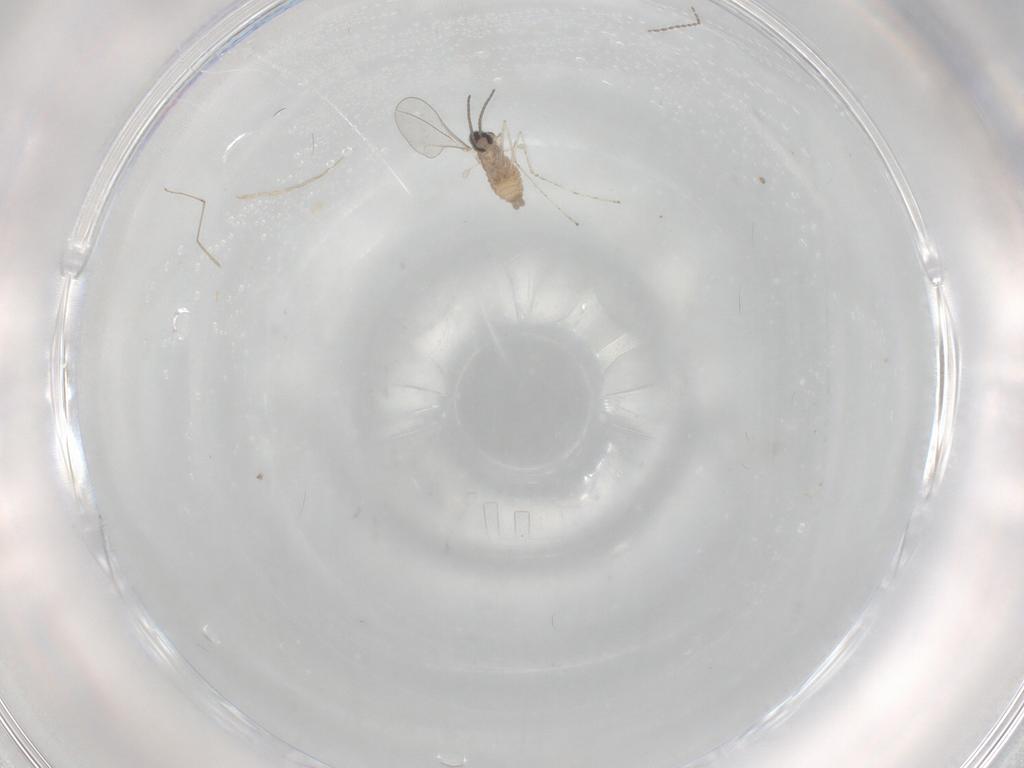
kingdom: Animalia
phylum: Arthropoda
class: Insecta
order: Diptera
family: Cecidomyiidae
